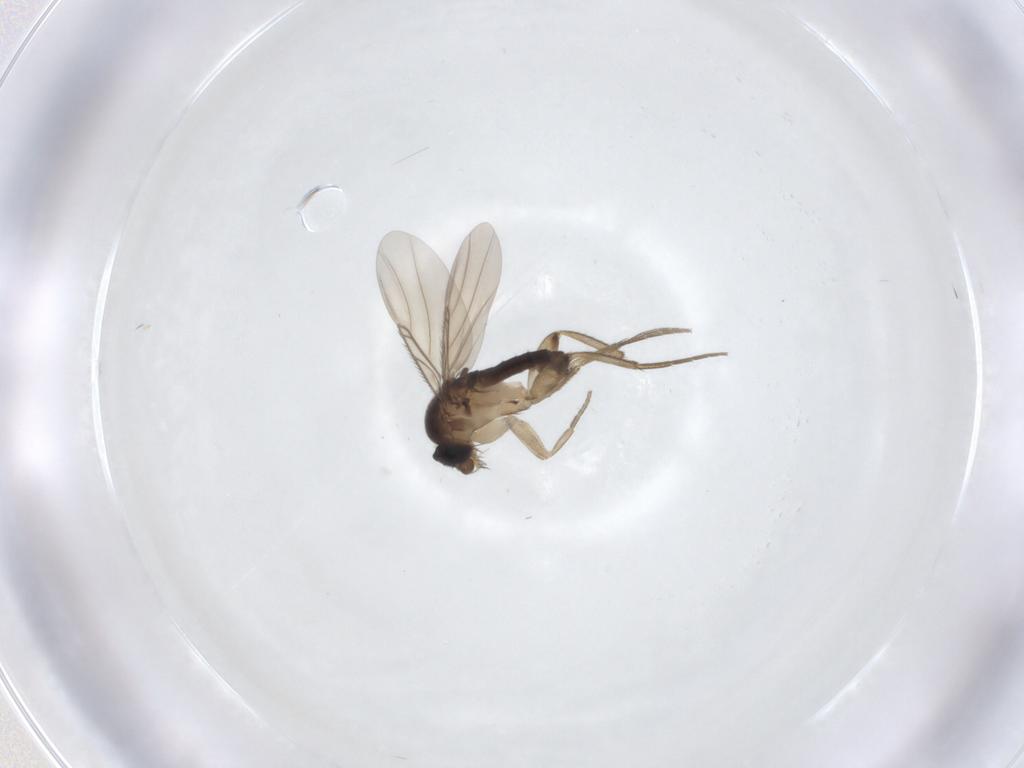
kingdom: Animalia
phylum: Arthropoda
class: Insecta
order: Diptera
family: Phoridae
